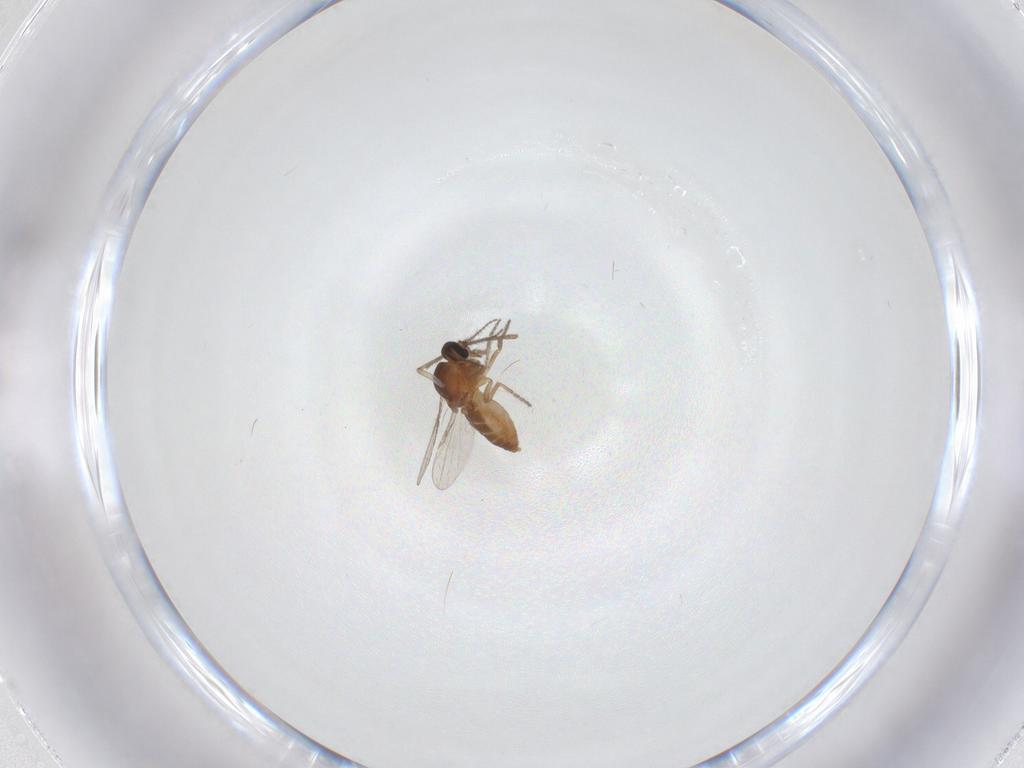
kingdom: Animalia
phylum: Arthropoda
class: Insecta
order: Diptera
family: Ceratopogonidae
